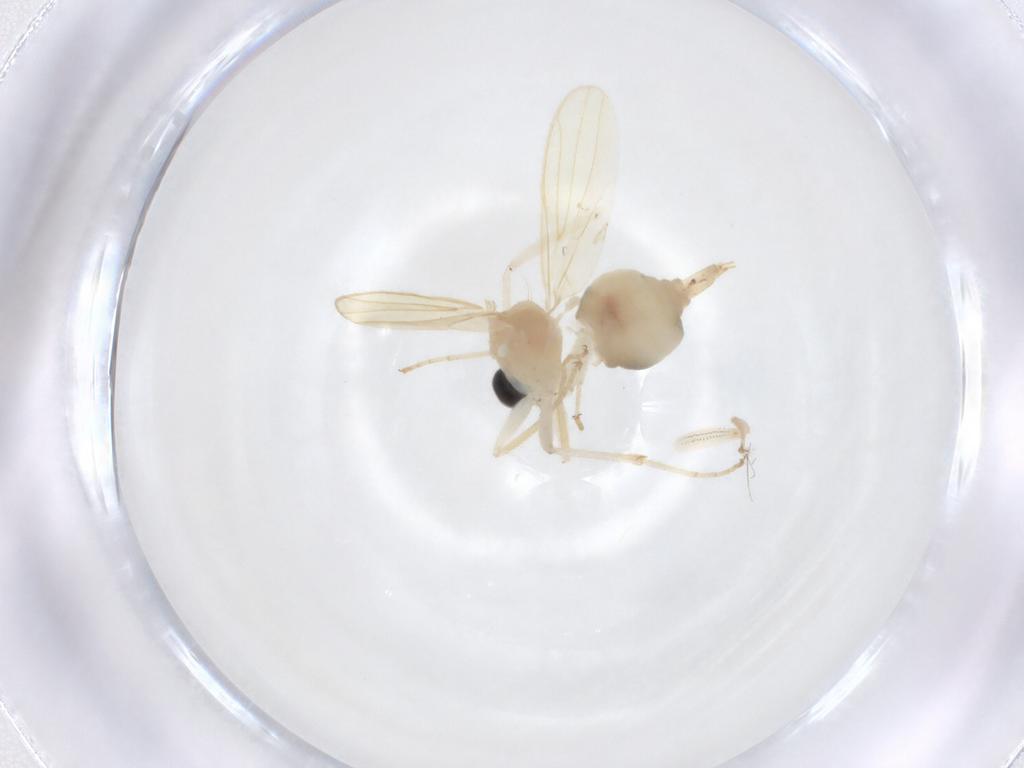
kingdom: Animalia
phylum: Arthropoda
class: Insecta
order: Diptera
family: Hybotidae
